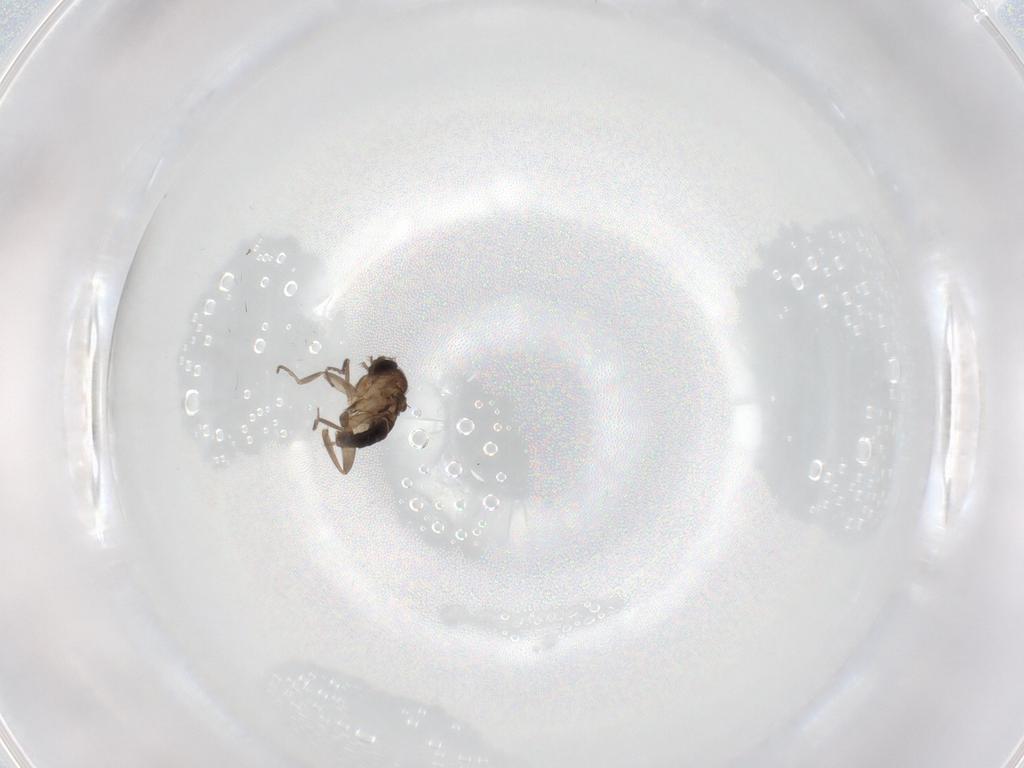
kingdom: Animalia
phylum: Arthropoda
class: Insecta
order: Diptera
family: Phoridae
